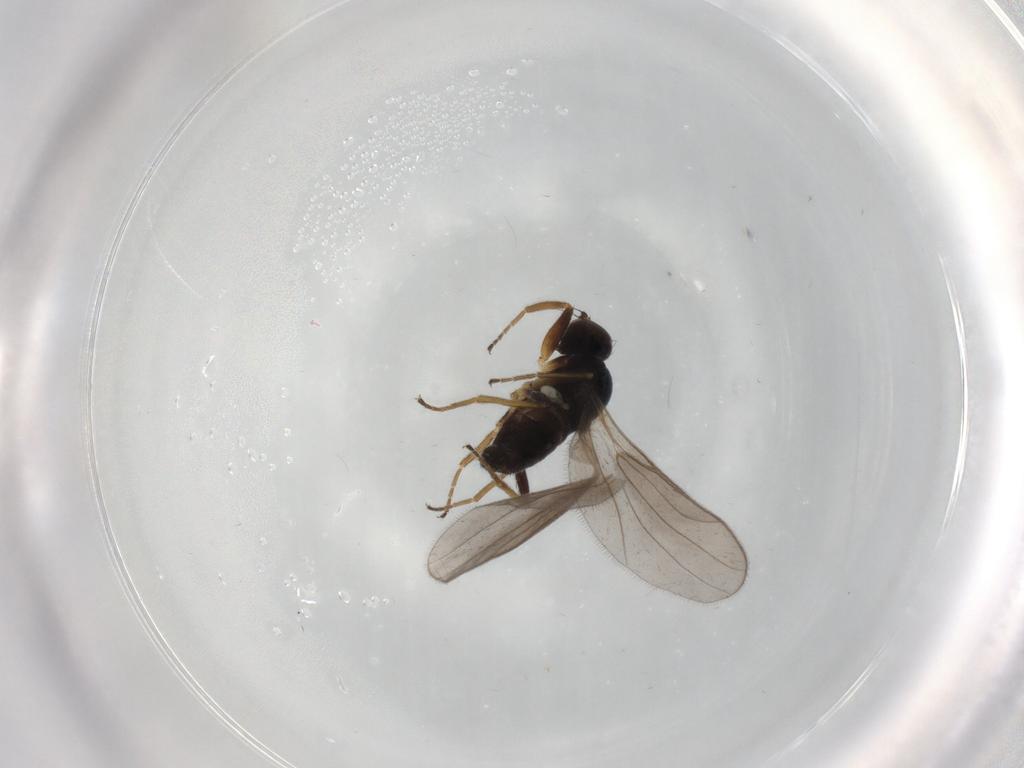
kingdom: Animalia
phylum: Arthropoda
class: Insecta
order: Diptera
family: Hybotidae
